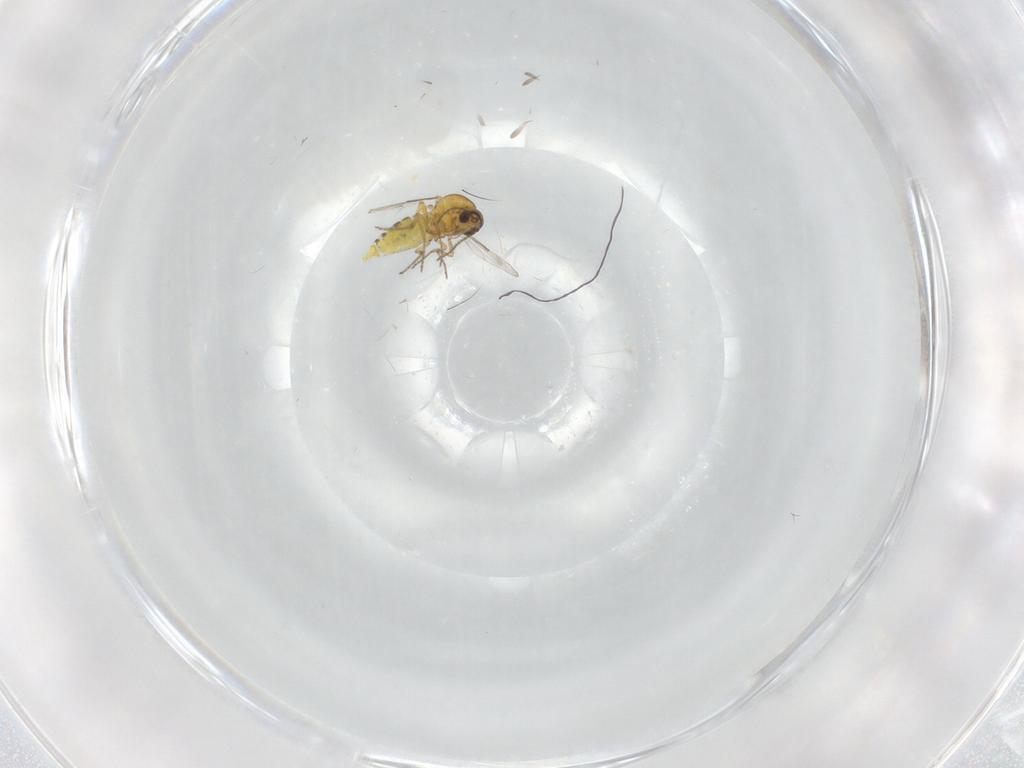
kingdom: Animalia
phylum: Arthropoda
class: Insecta
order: Diptera
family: Ceratopogonidae
